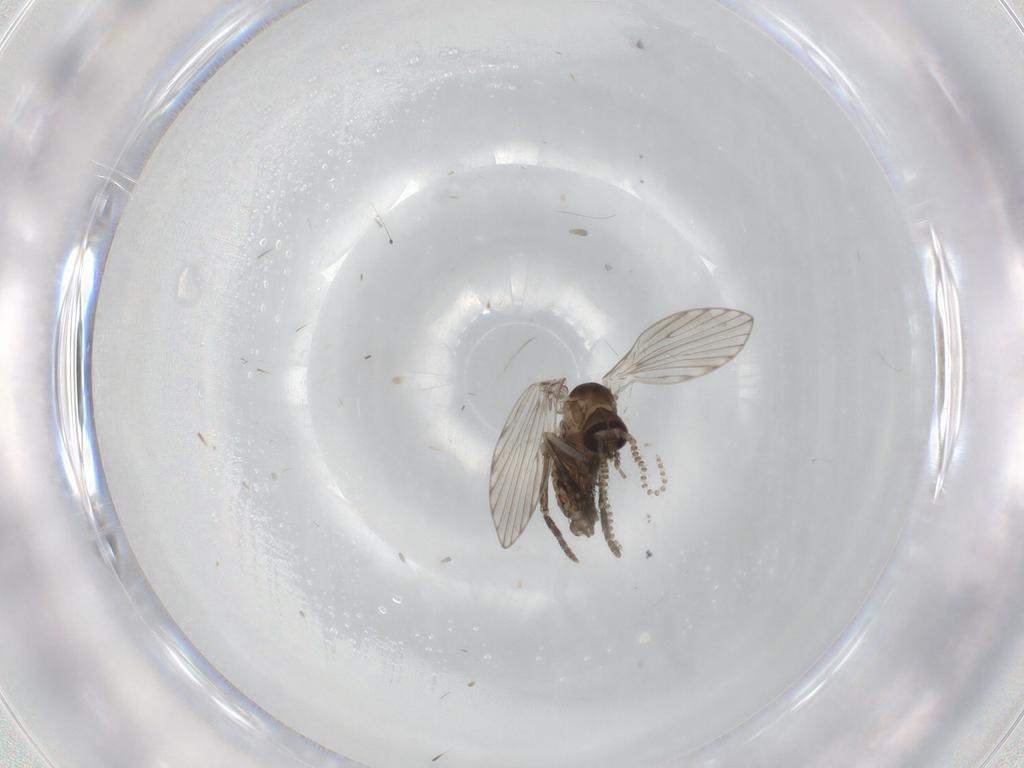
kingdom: Animalia
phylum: Arthropoda
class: Insecta
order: Diptera
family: Psychodidae
